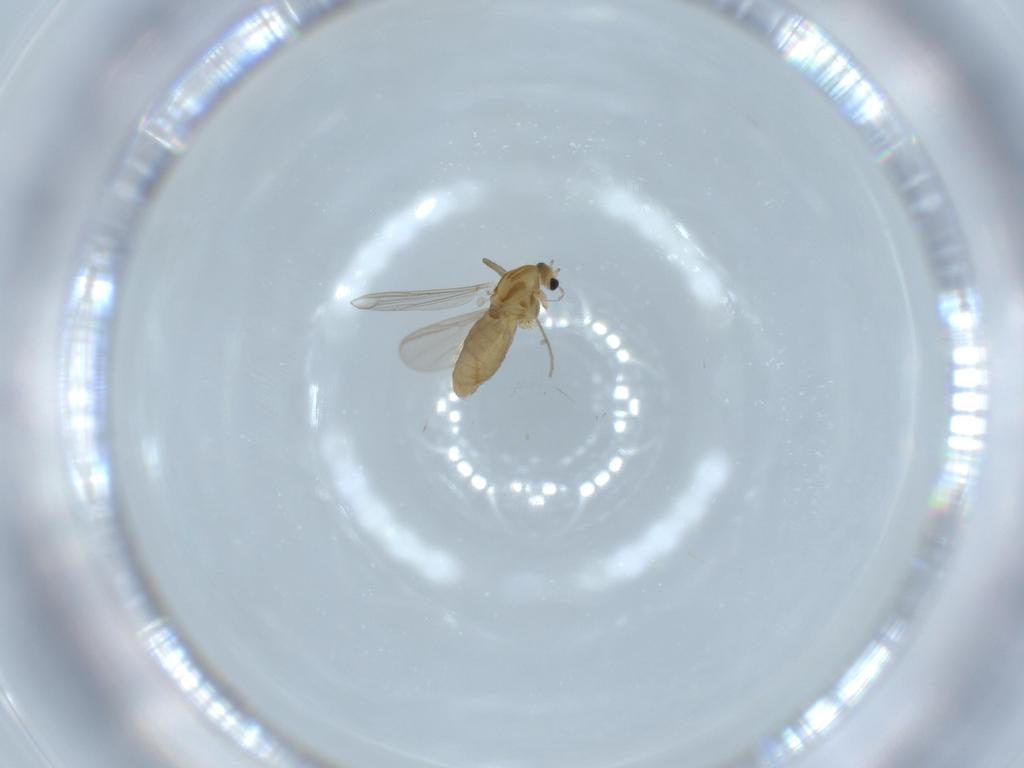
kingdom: Animalia
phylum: Arthropoda
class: Insecta
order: Diptera
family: Chironomidae
